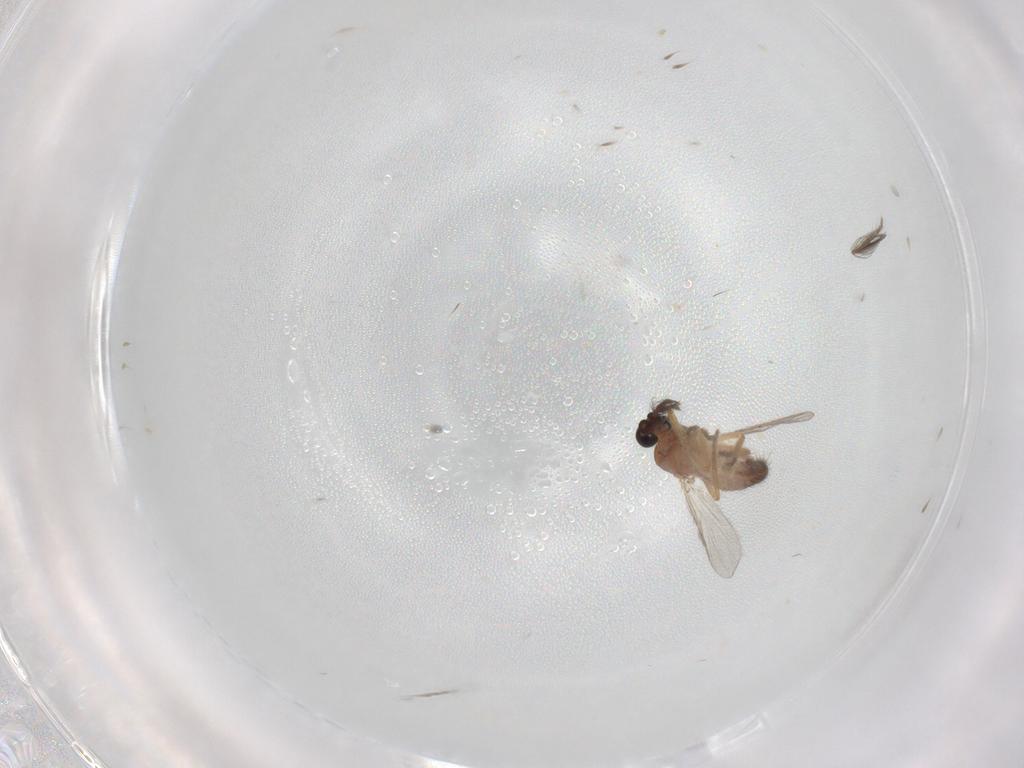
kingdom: Animalia
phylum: Arthropoda
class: Insecta
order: Diptera
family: Ceratopogonidae
